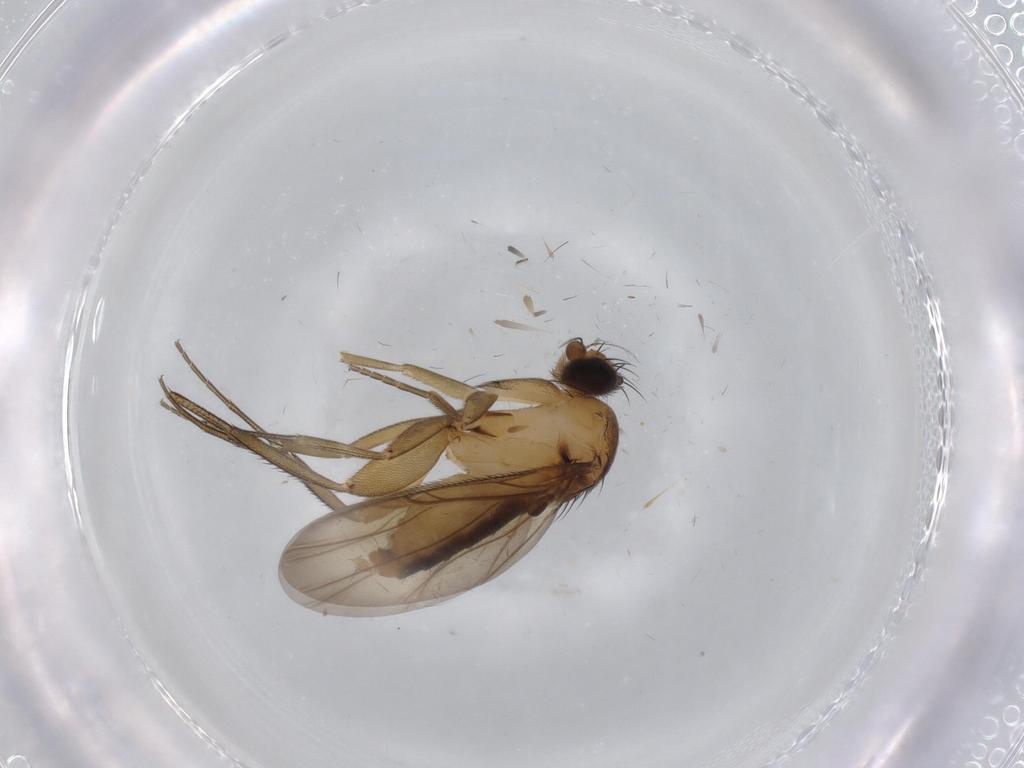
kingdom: Animalia
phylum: Arthropoda
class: Insecta
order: Diptera
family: Phoridae
